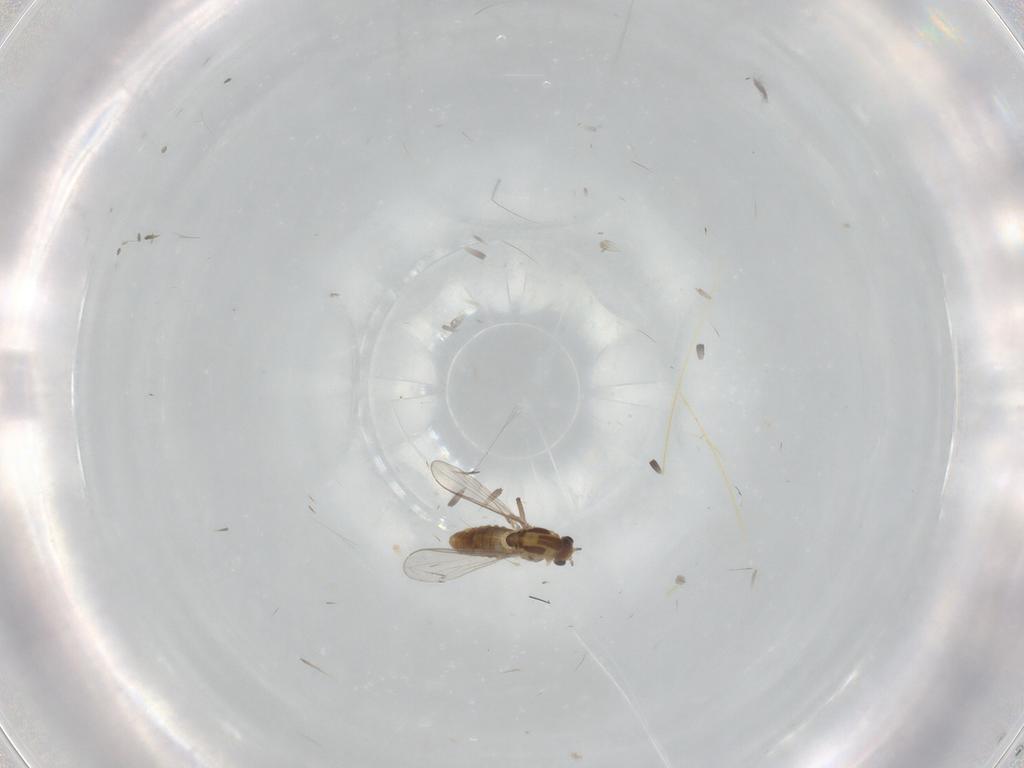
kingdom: Animalia
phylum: Arthropoda
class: Insecta
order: Diptera
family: Chironomidae
